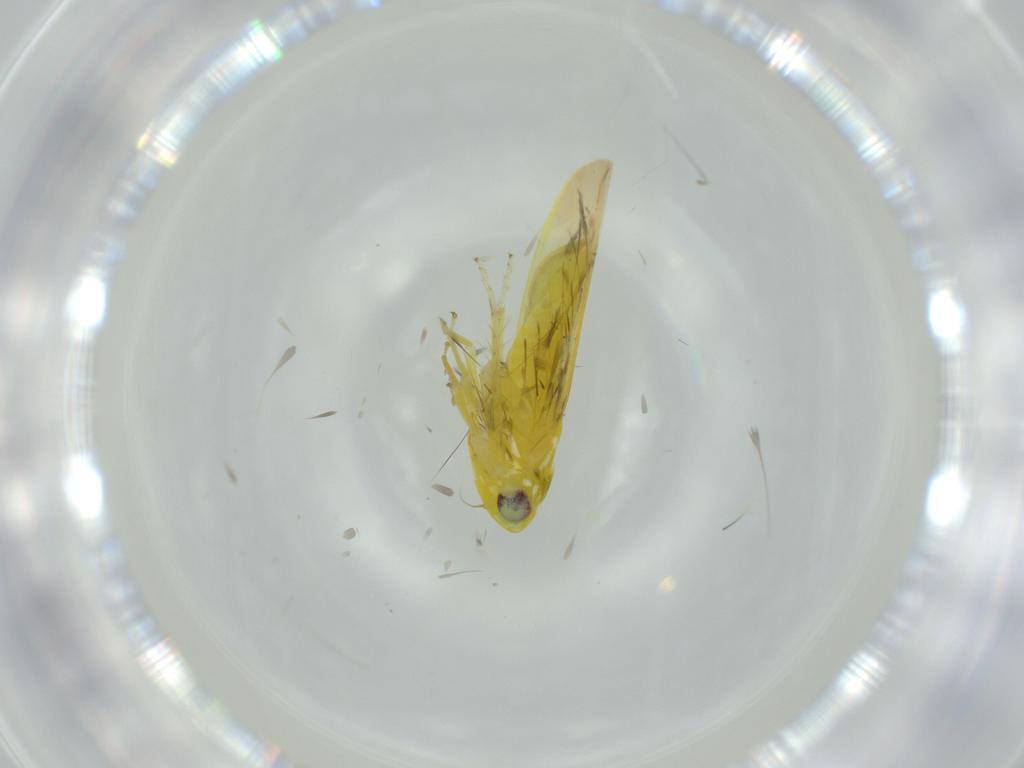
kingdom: Animalia
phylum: Arthropoda
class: Insecta
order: Hemiptera
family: Cicadellidae
